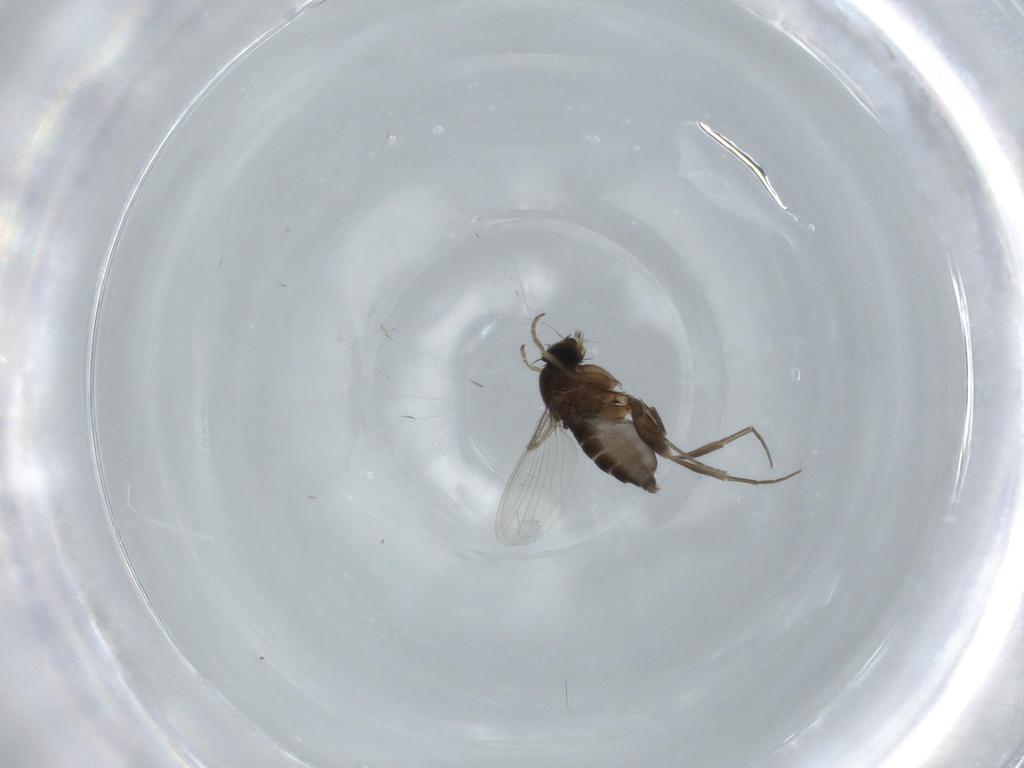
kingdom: Animalia
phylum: Arthropoda
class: Insecta
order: Diptera
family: Phoridae
